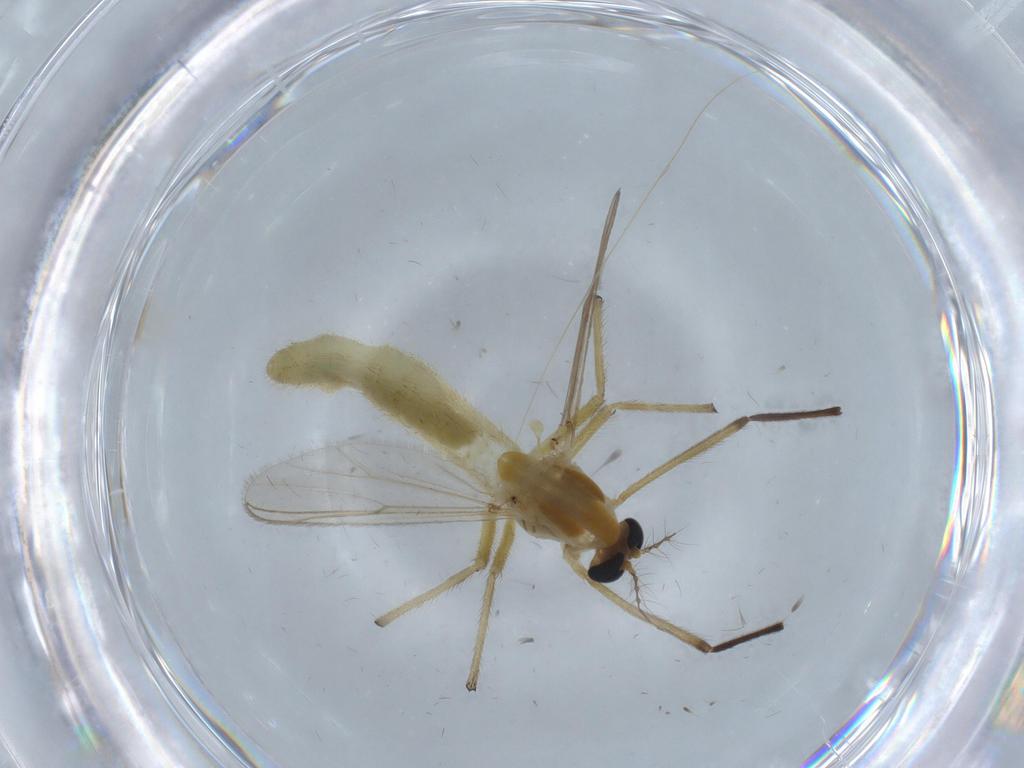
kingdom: Animalia
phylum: Arthropoda
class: Insecta
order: Diptera
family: Chironomidae
